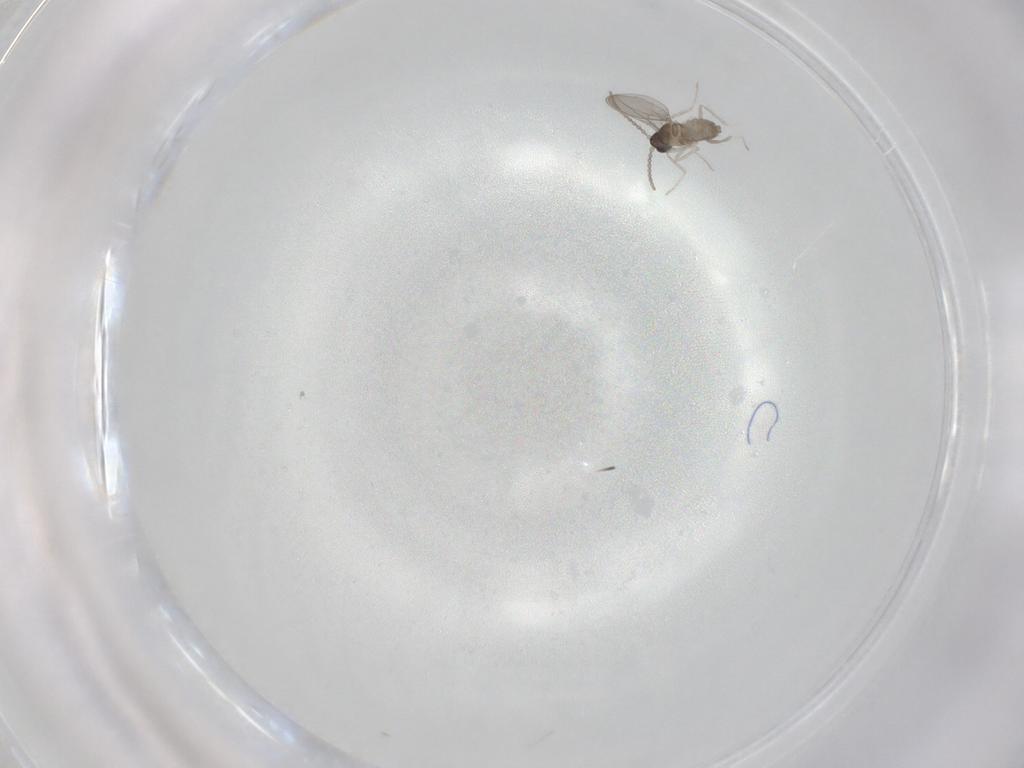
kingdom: Animalia
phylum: Arthropoda
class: Insecta
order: Diptera
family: Cecidomyiidae
